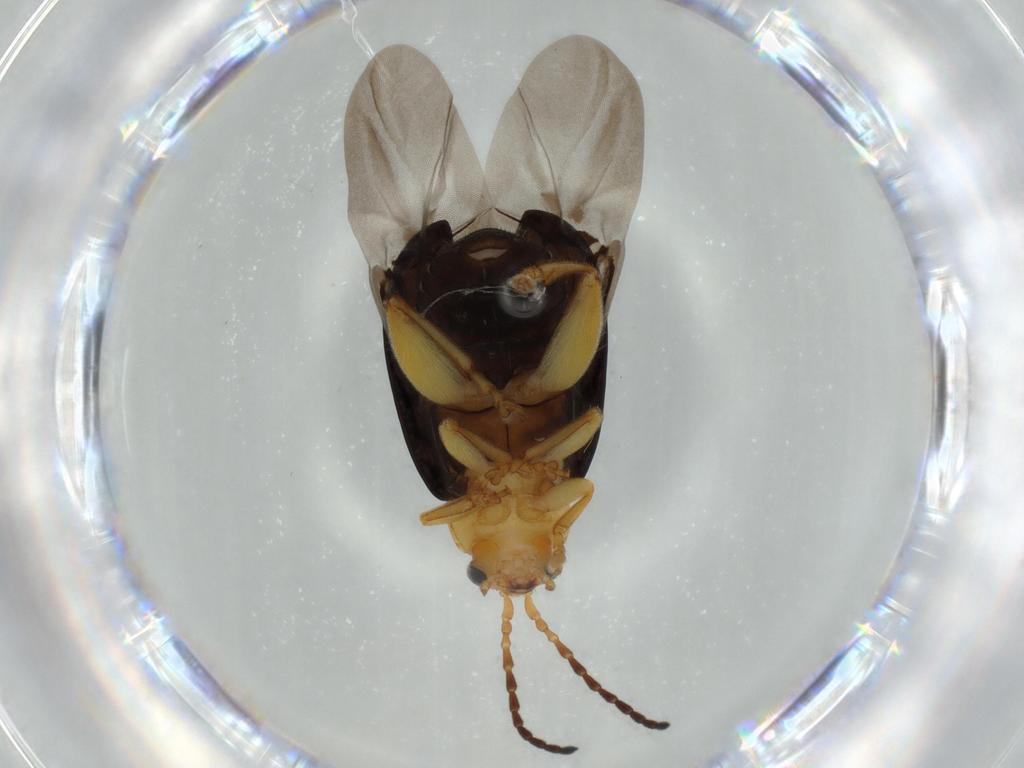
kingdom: Animalia
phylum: Arthropoda
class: Insecta
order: Coleoptera
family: Chrysomelidae
